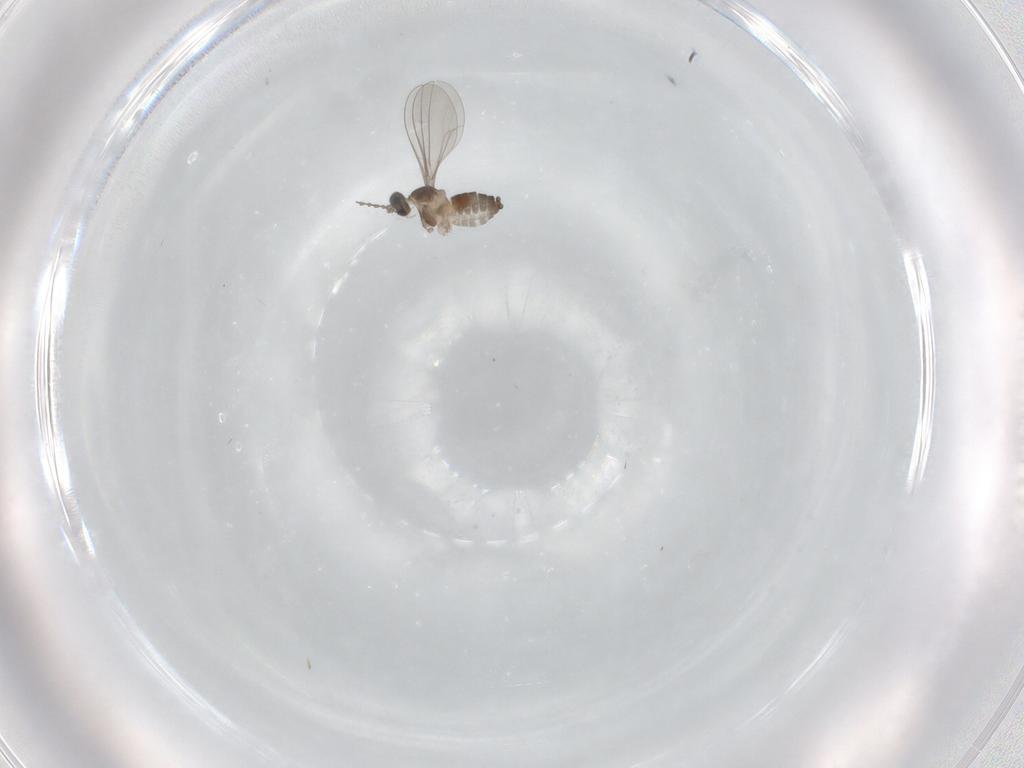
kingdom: Animalia
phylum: Arthropoda
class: Insecta
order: Diptera
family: Cecidomyiidae
